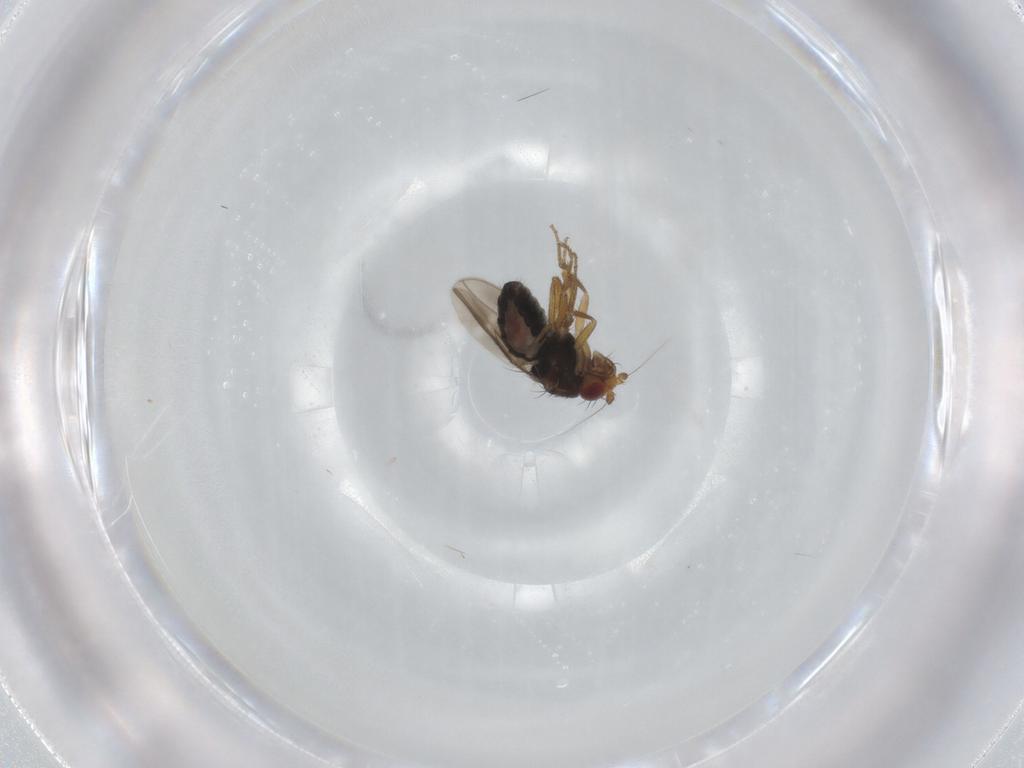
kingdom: Animalia
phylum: Arthropoda
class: Insecta
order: Diptera
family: Sphaeroceridae
